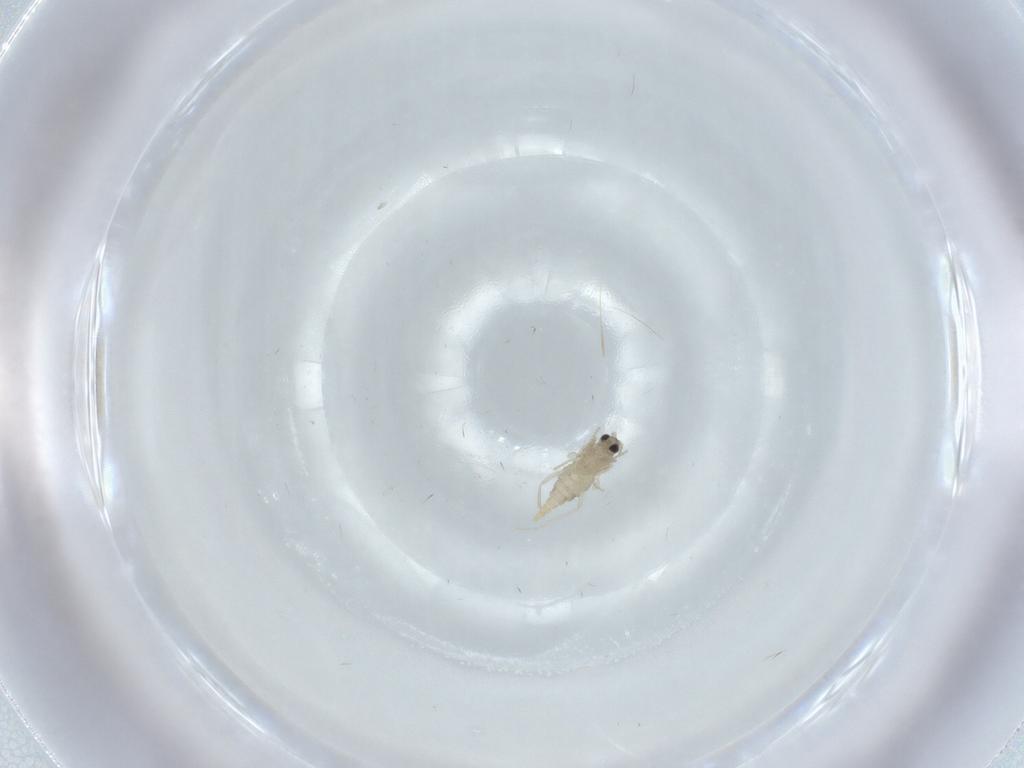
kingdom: Animalia
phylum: Arthropoda
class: Insecta
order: Diptera
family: Cecidomyiidae
